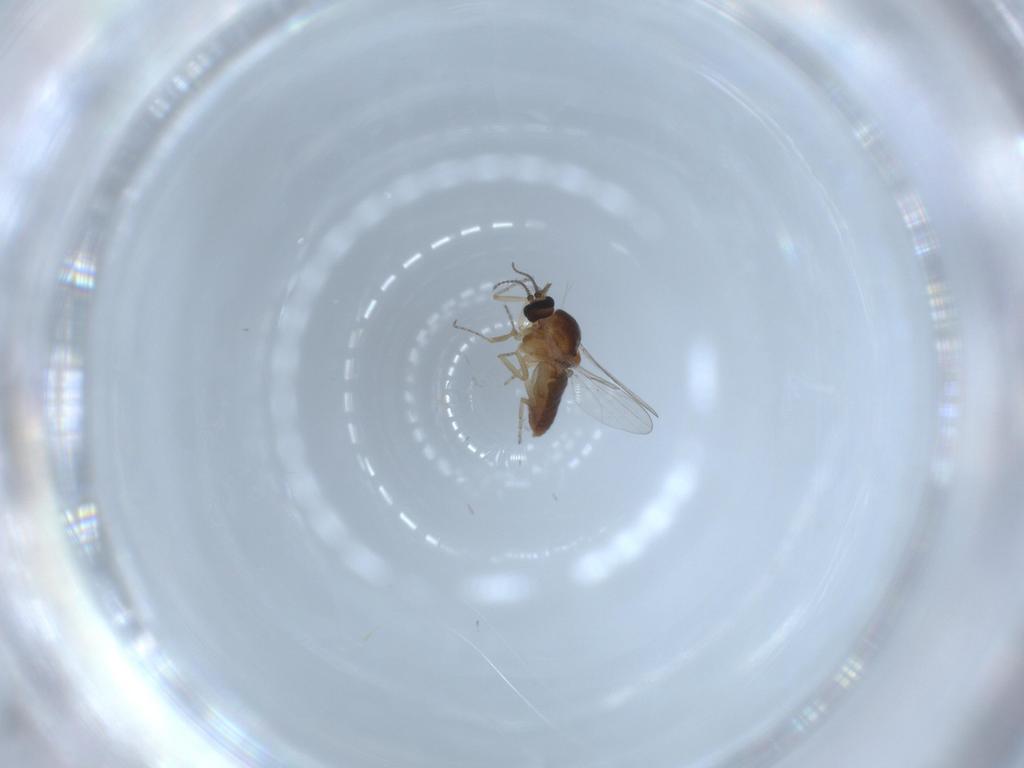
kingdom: Animalia
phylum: Arthropoda
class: Insecta
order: Diptera
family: Ceratopogonidae
